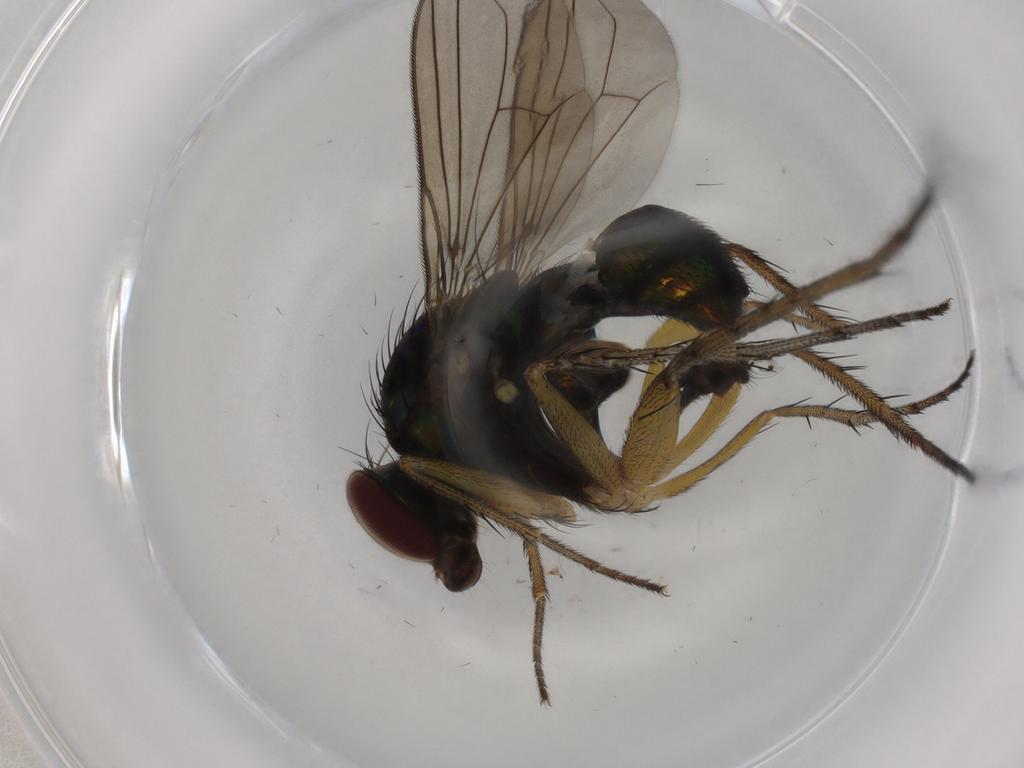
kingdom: Animalia
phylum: Arthropoda
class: Insecta
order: Diptera
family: Dolichopodidae
